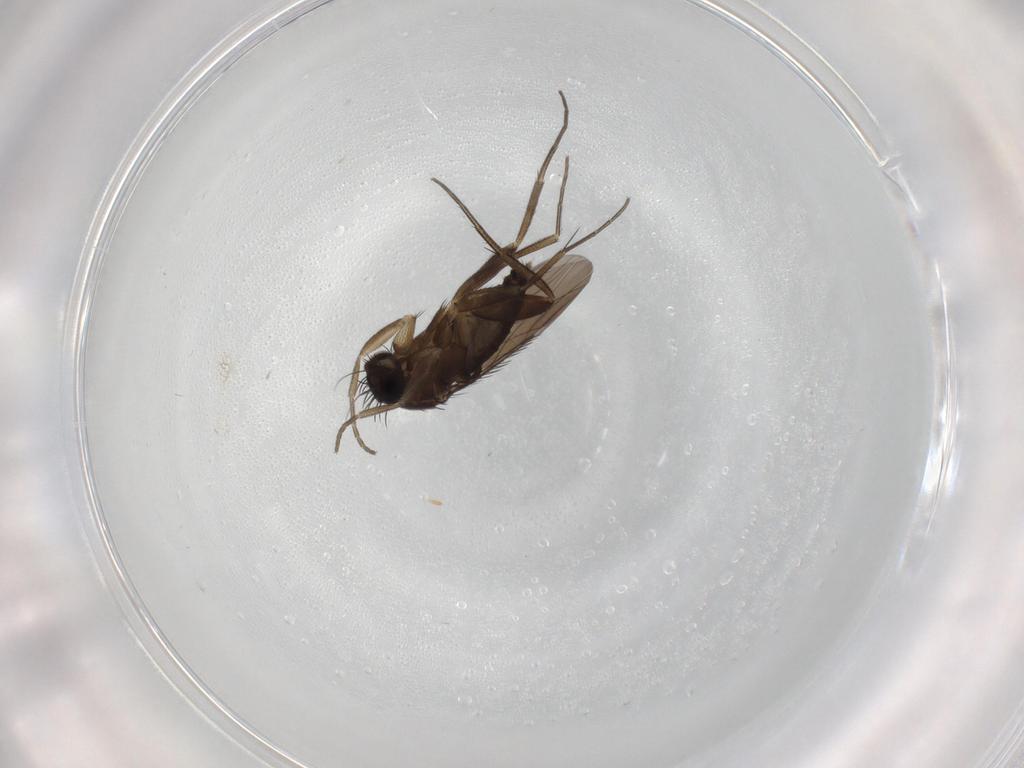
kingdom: Animalia
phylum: Arthropoda
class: Insecta
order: Diptera
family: Phoridae
